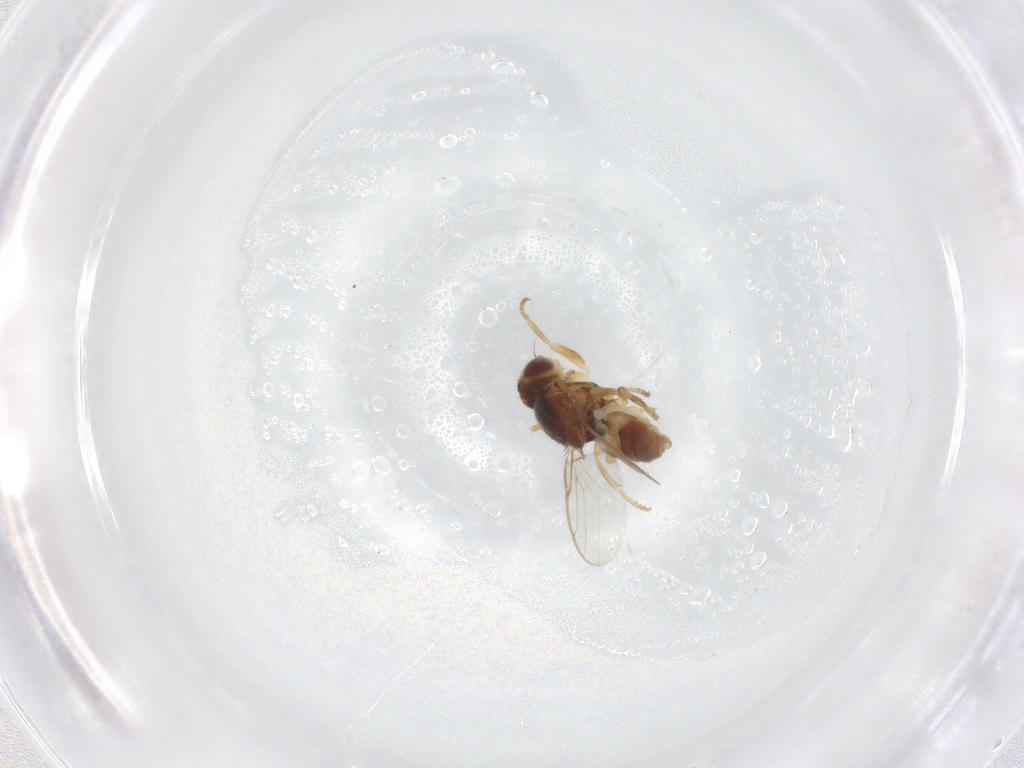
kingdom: Animalia
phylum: Arthropoda
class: Insecta
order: Diptera
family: Chloropidae
